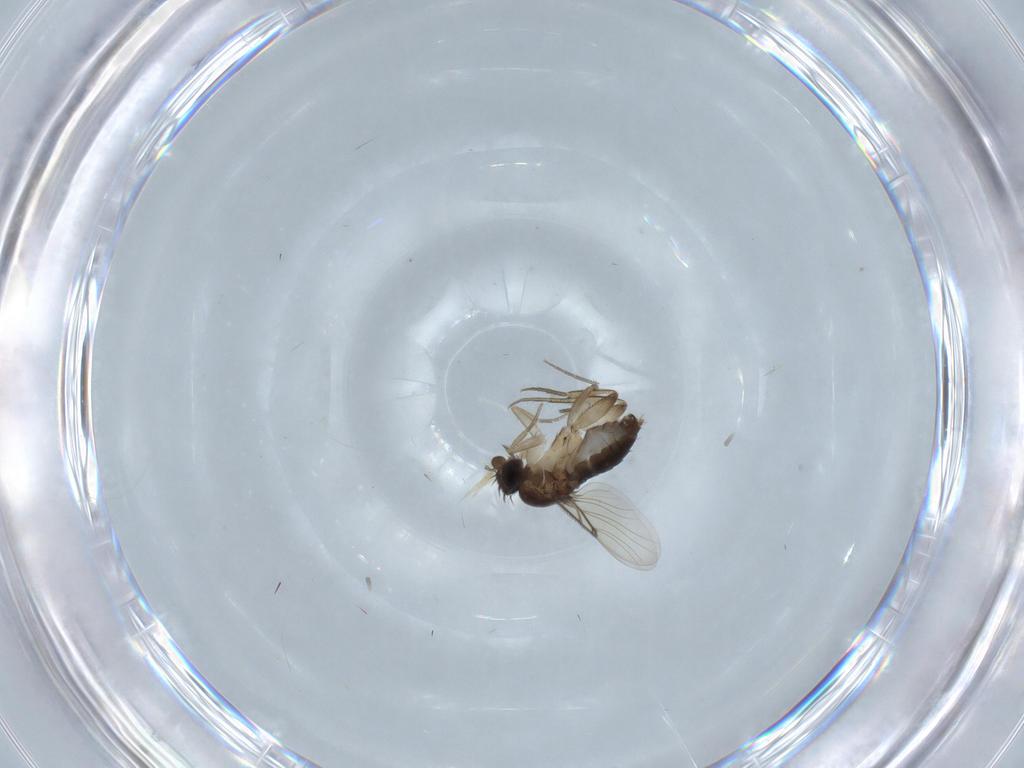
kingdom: Animalia
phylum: Arthropoda
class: Insecta
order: Diptera
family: Phoridae
